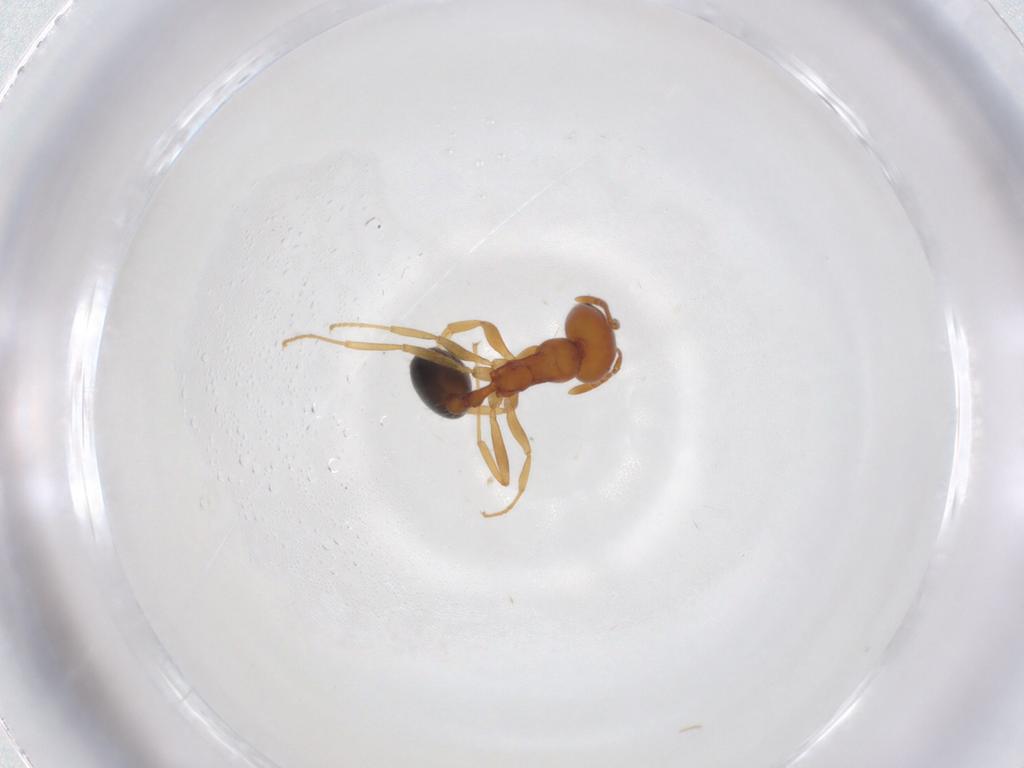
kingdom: Animalia
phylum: Arthropoda
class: Insecta
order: Hymenoptera
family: Formicidae
